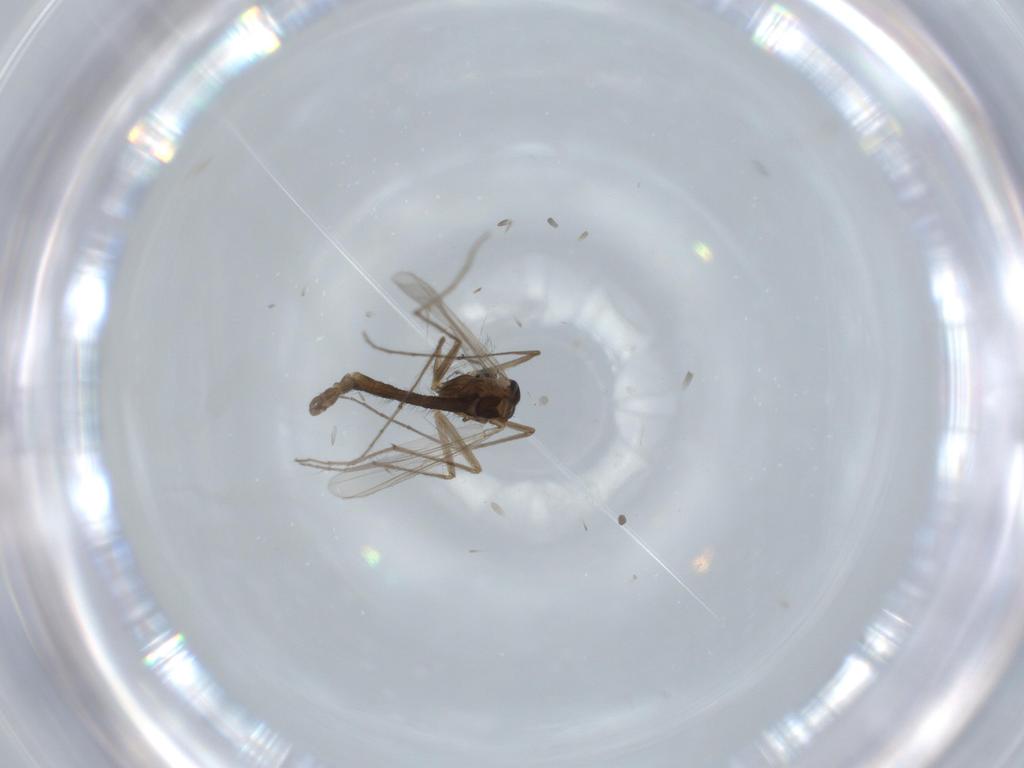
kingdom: Animalia
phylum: Arthropoda
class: Insecta
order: Diptera
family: Chironomidae
